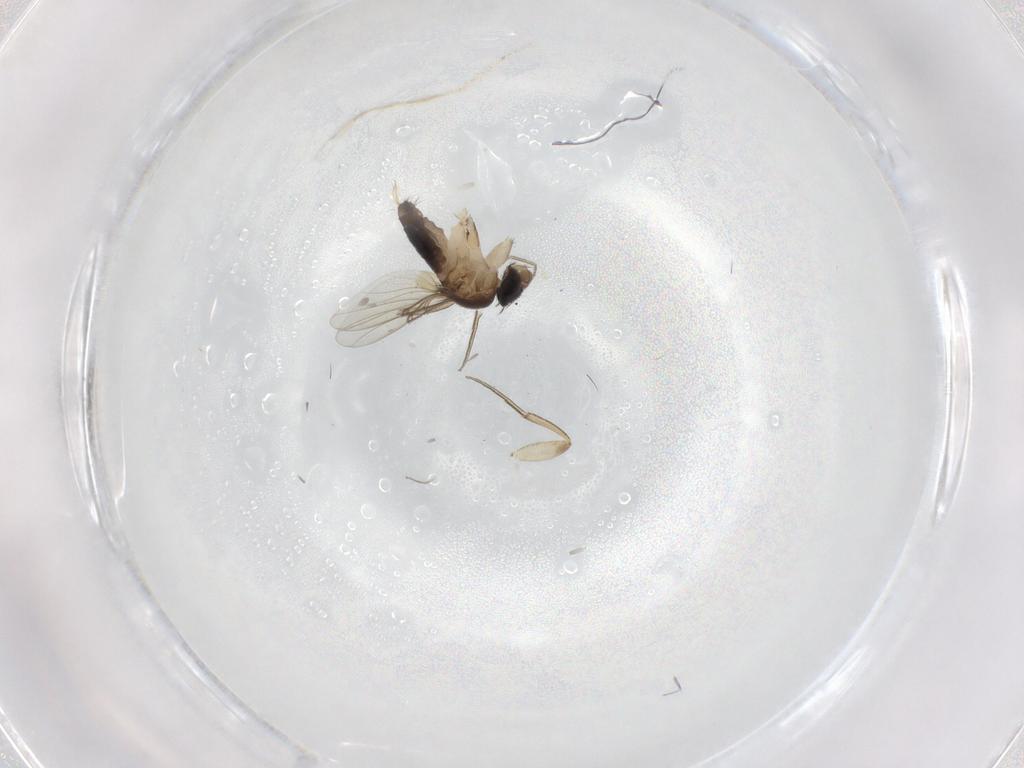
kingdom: Animalia
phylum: Arthropoda
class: Insecta
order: Diptera
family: Phoridae
